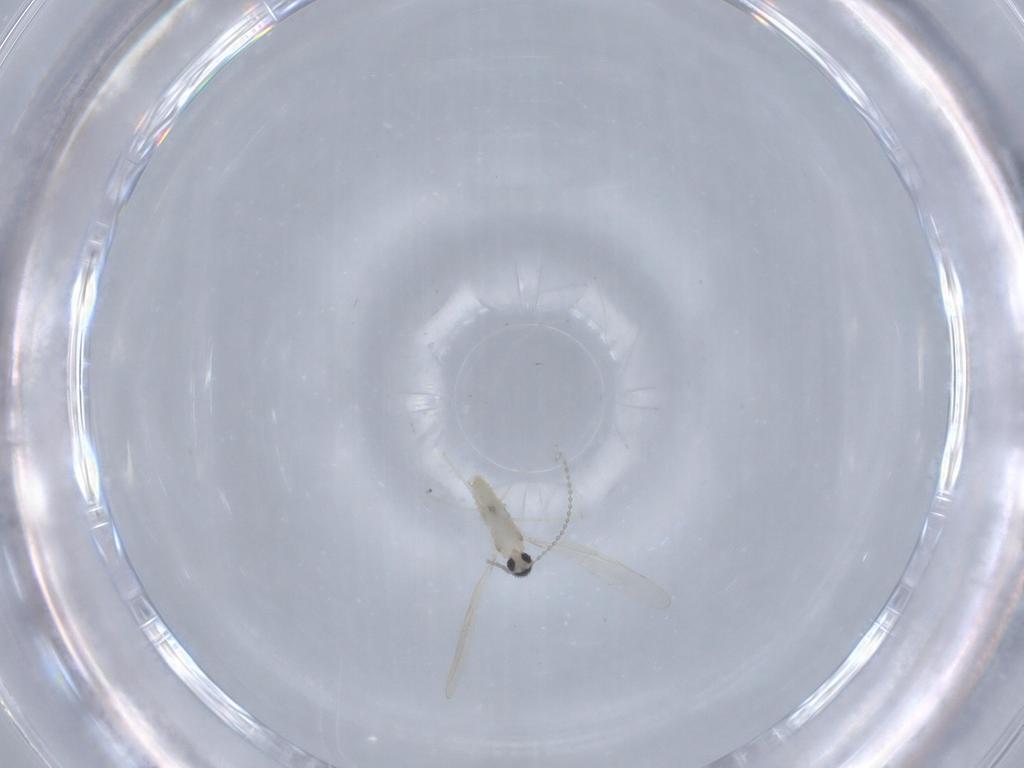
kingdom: Animalia
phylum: Arthropoda
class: Insecta
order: Diptera
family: Cecidomyiidae
